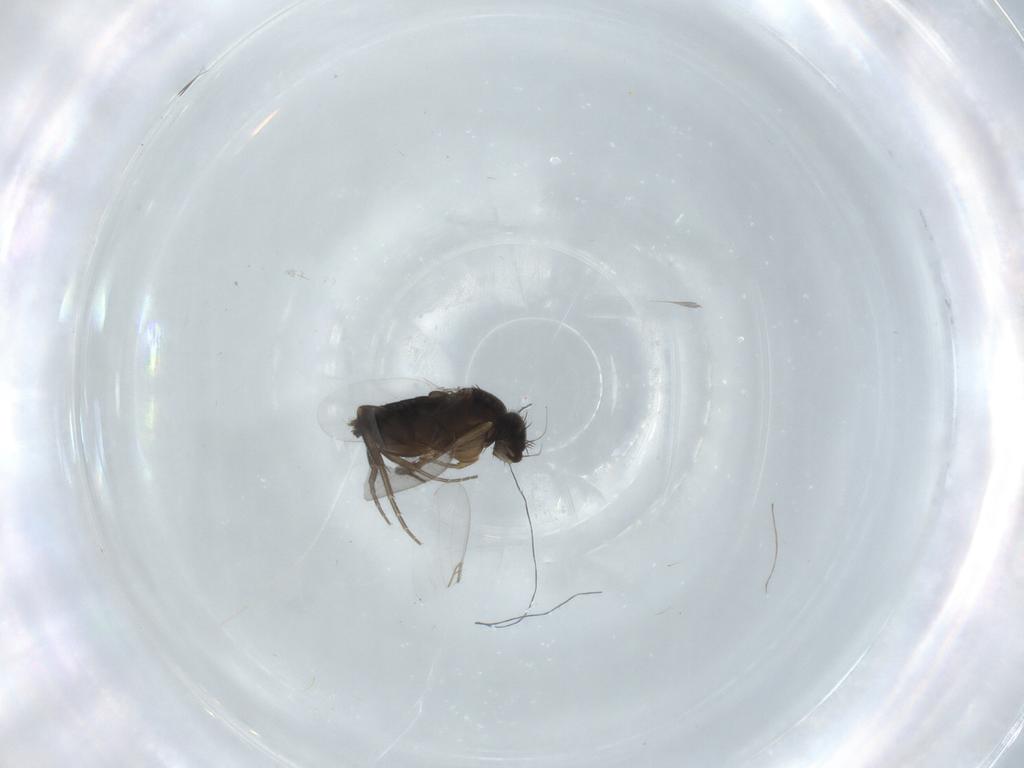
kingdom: Animalia
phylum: Arthropoda
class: Insecta
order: Diptera
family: Phoridae
